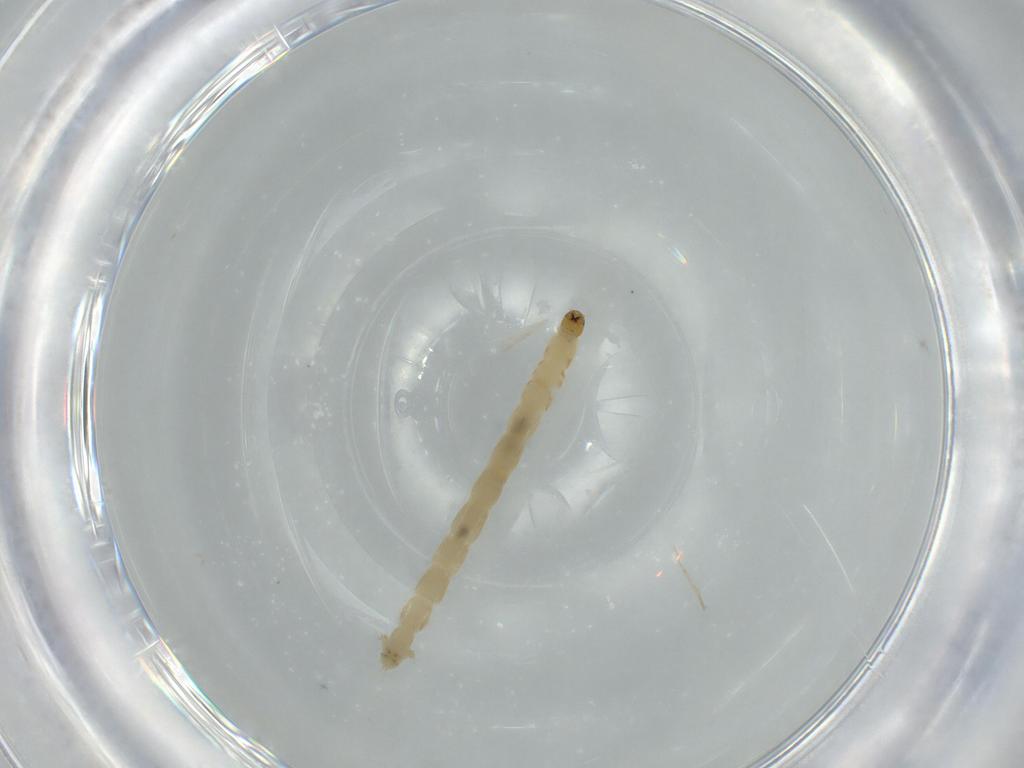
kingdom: Animalia
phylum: Arthropoda
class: Insecta
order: Diptera
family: Chironomidae
